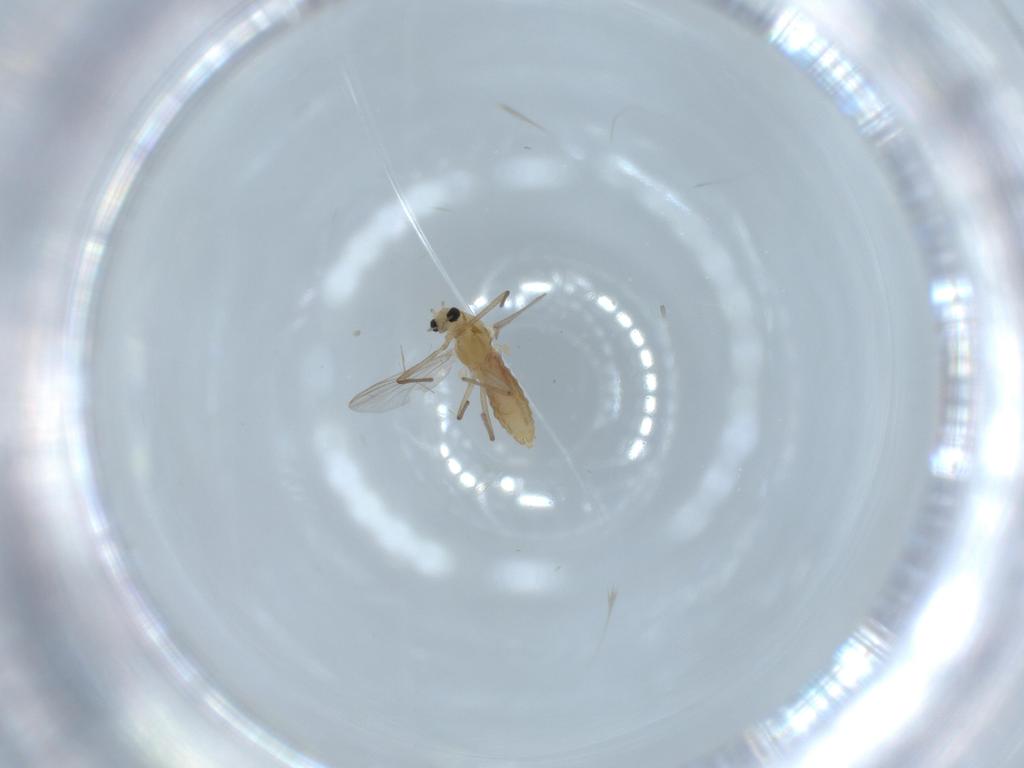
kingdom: Animalia
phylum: Arthropoda
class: Insecta
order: Diptera
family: Chironomidae
